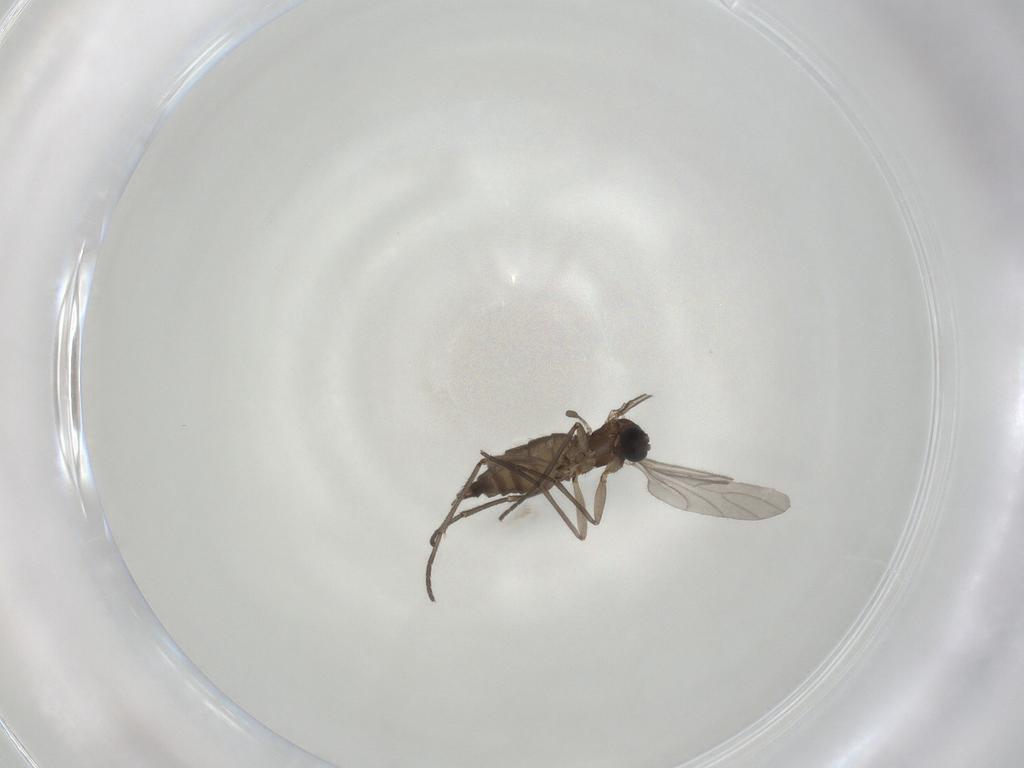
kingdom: Animalia
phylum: Arthropoda
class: Insecta
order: Diptera
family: Sciaridae
